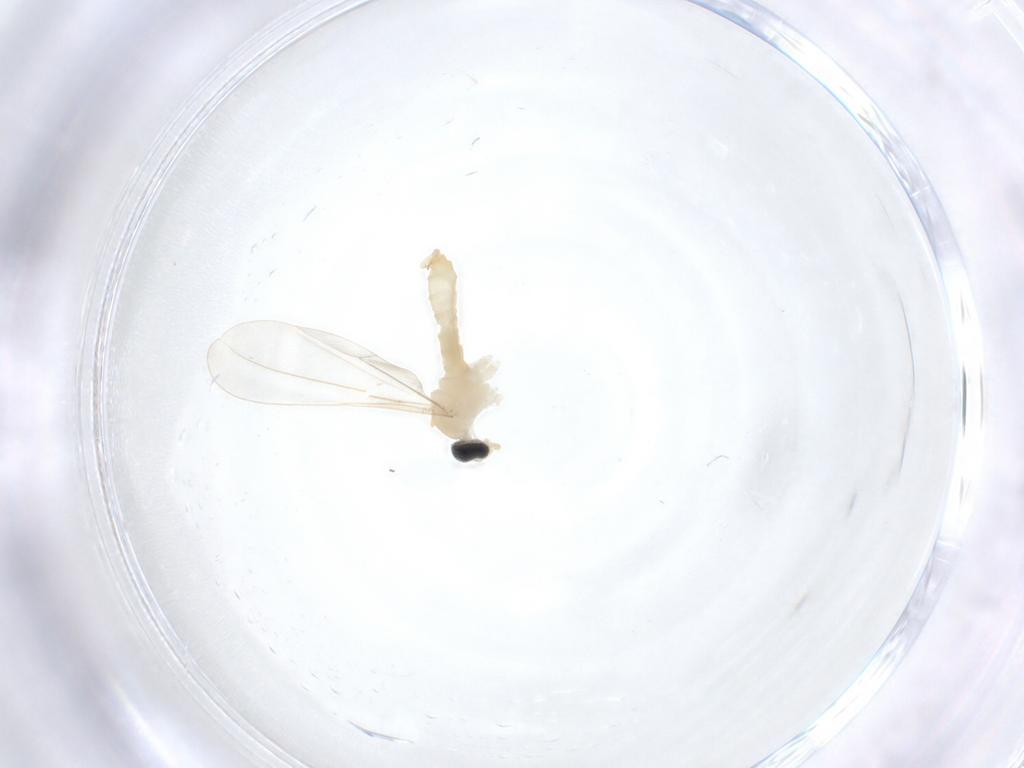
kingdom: Animalia
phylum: Arthropoda
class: Insecta
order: Diptera
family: Cecidomyiidae
